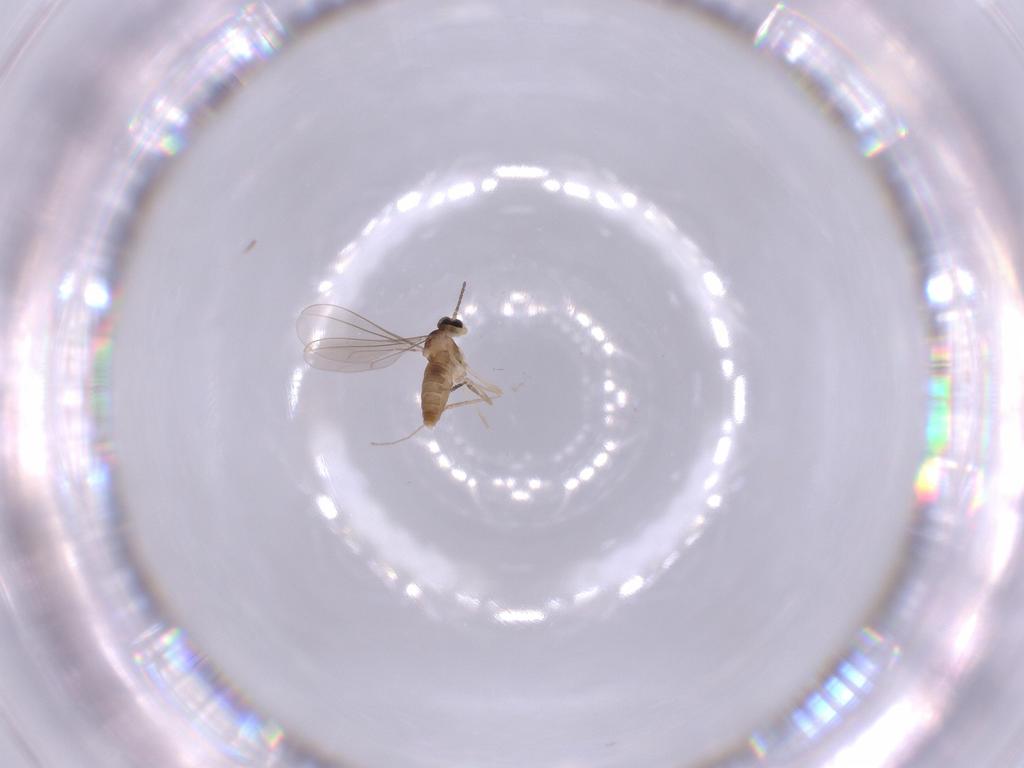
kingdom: Animalia
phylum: Arthropoda
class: Insecta
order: Diptera
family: Cecidomyiidae
